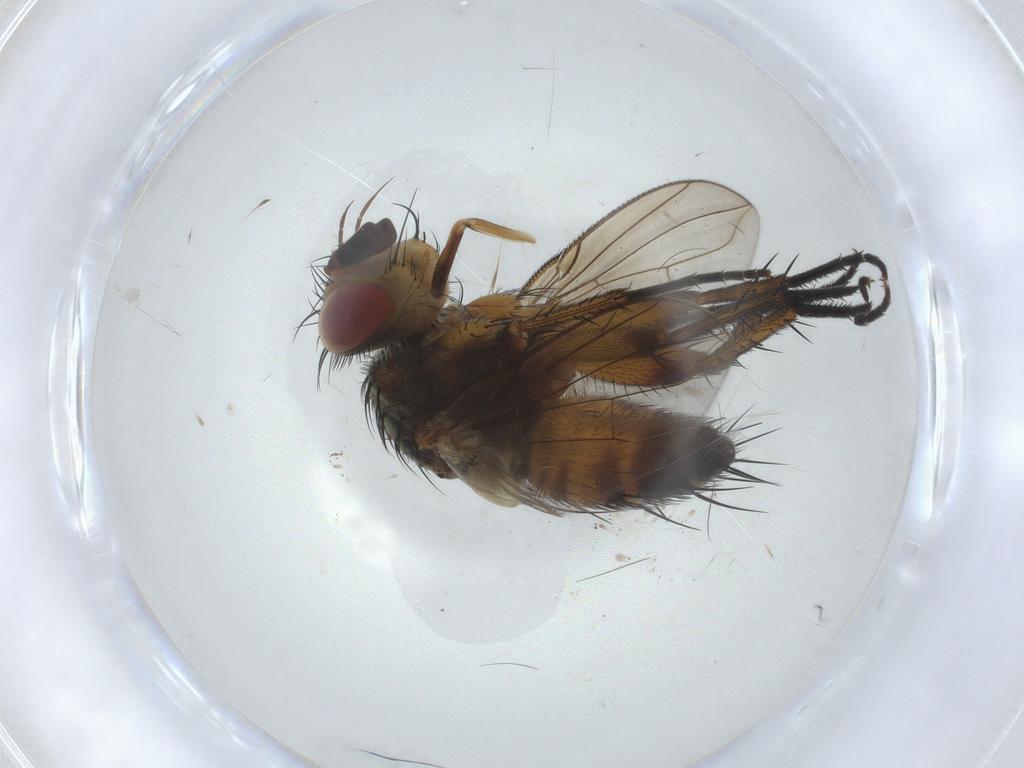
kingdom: Animalia
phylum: Arthropoda
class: Insecta
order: Diptera
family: Tachinidae
